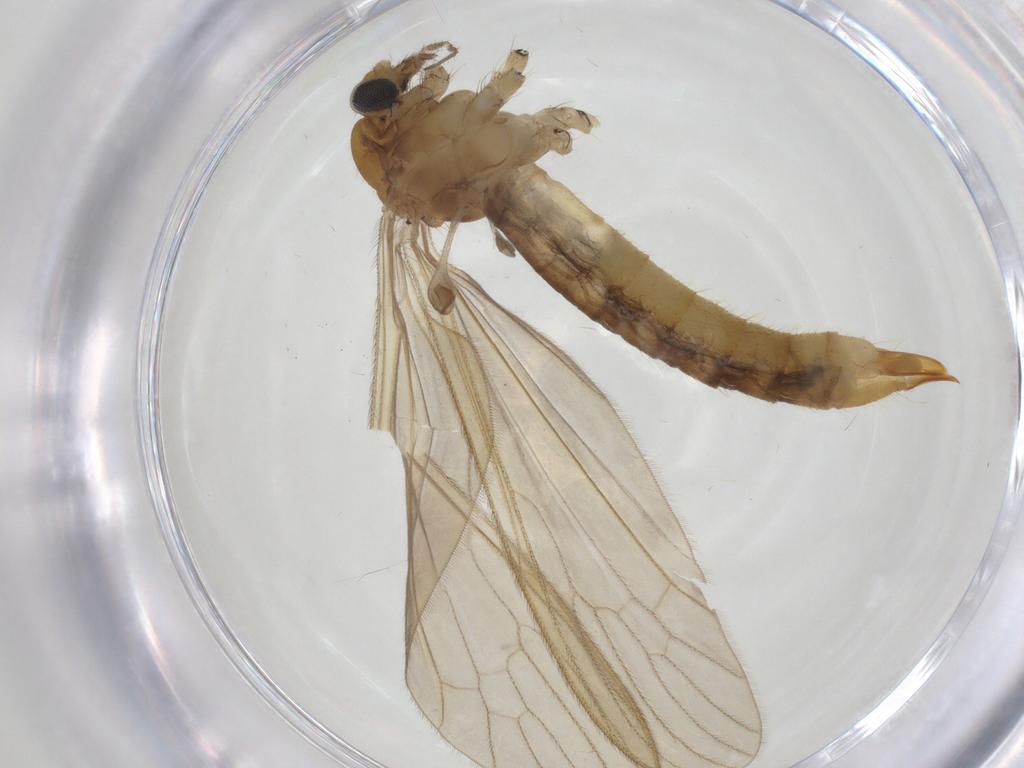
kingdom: Animalia
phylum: Arthropoda
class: Insecta
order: Diptera
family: Limoniidae
